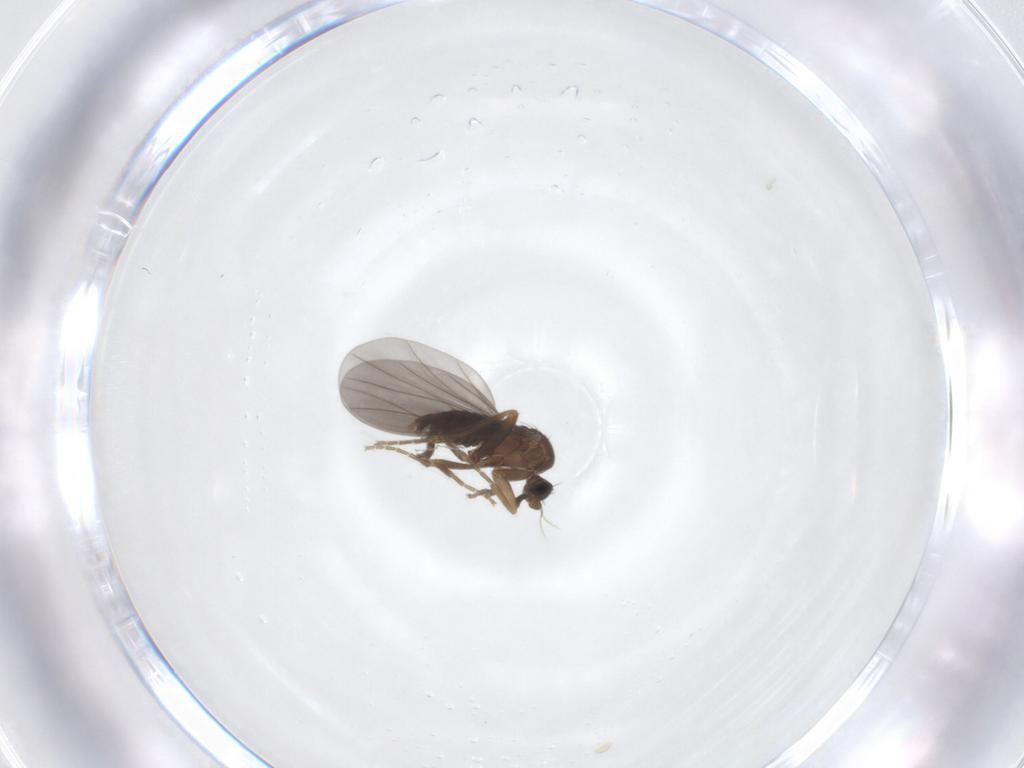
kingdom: Animalia
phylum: Arthropoda
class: Insecta
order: Diptera
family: Phoridae
